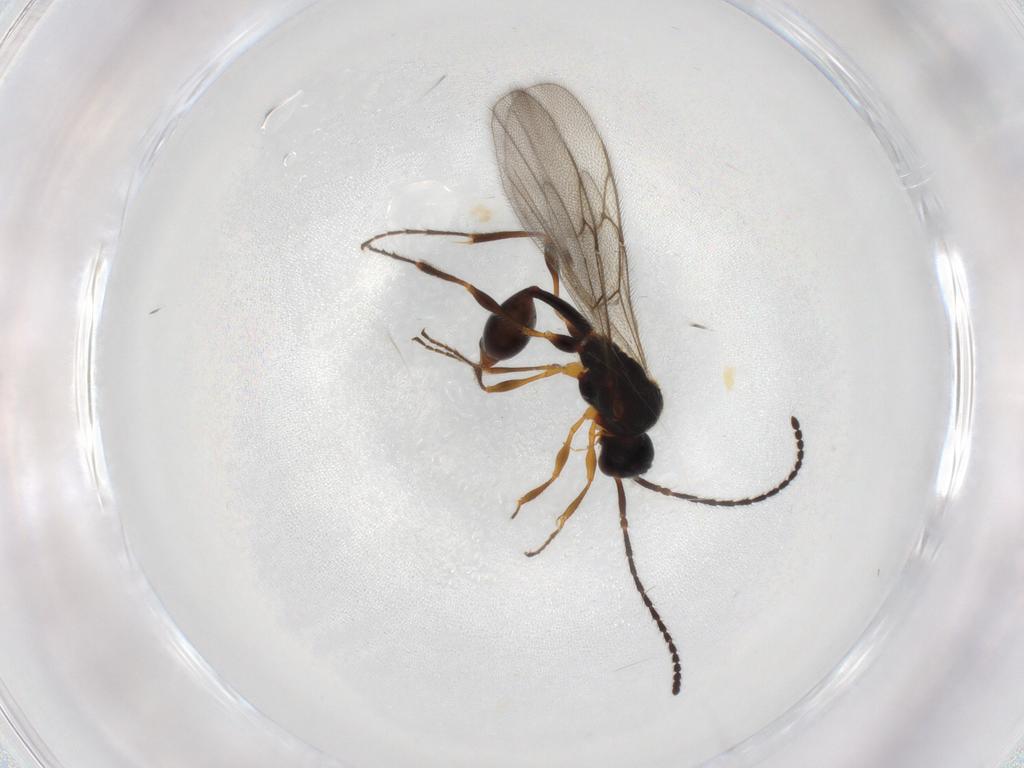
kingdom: Animalia
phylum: Arthropoda
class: Insecta
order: Hymenoptera
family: Diapriidae
